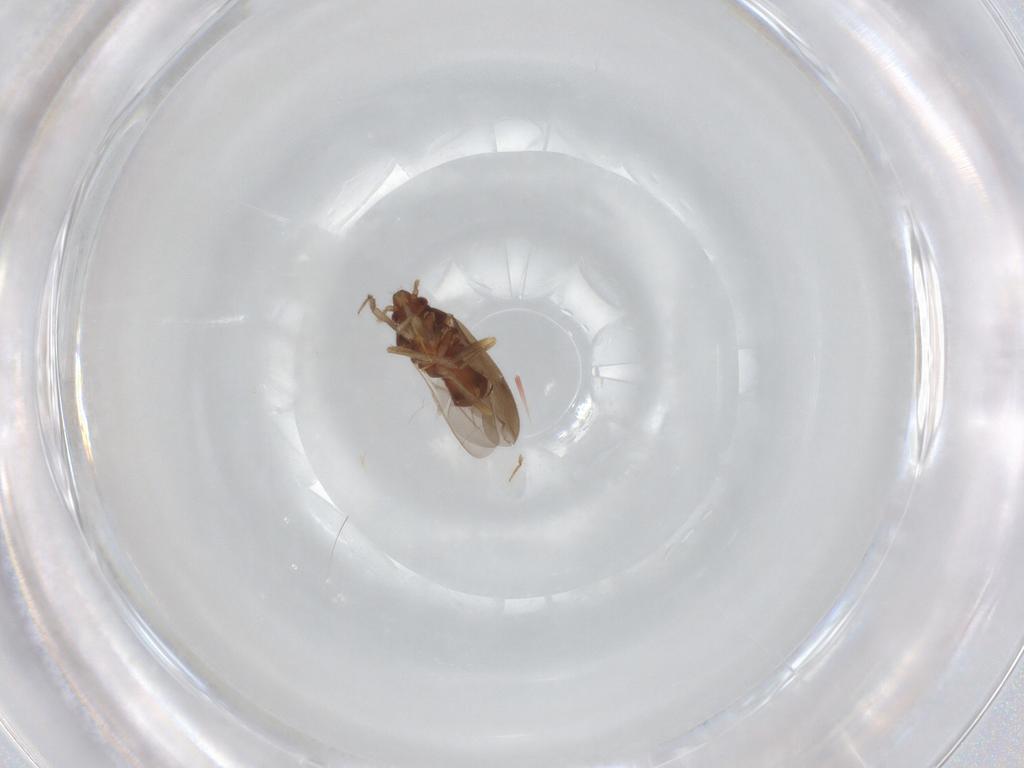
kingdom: Animalia
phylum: Arthropoda
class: Insecta
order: Hemiptera
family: Ceratocombidae
